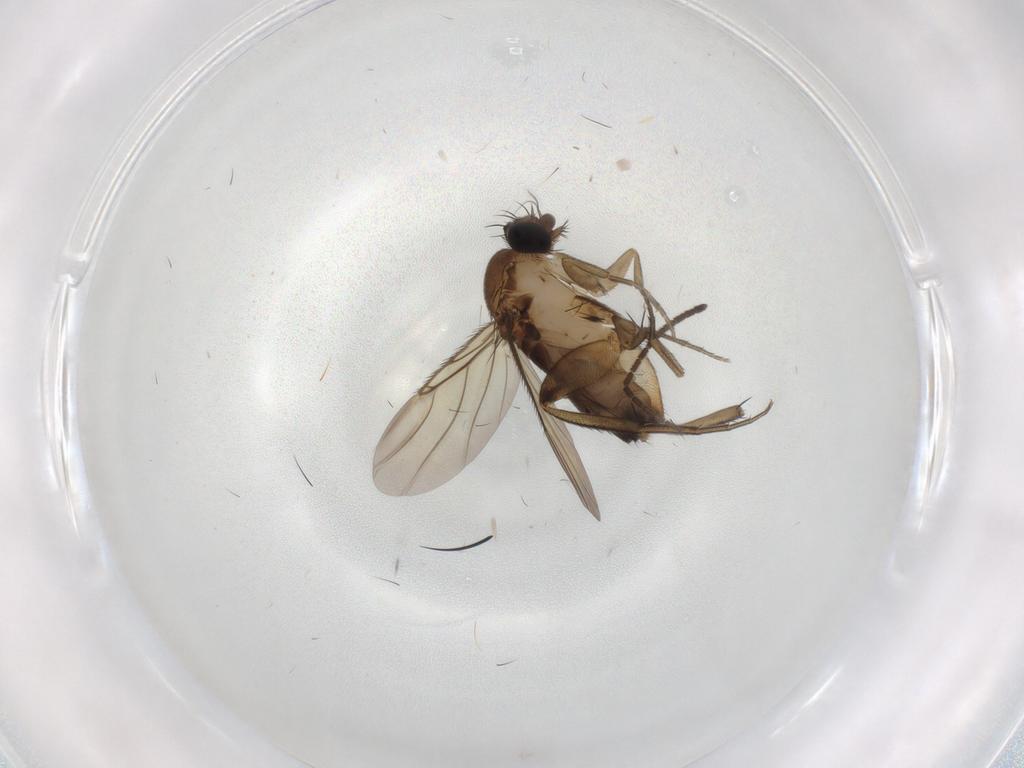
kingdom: Animalia
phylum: Arthropoda
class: Insecta
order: Diptera
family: Phoridae
